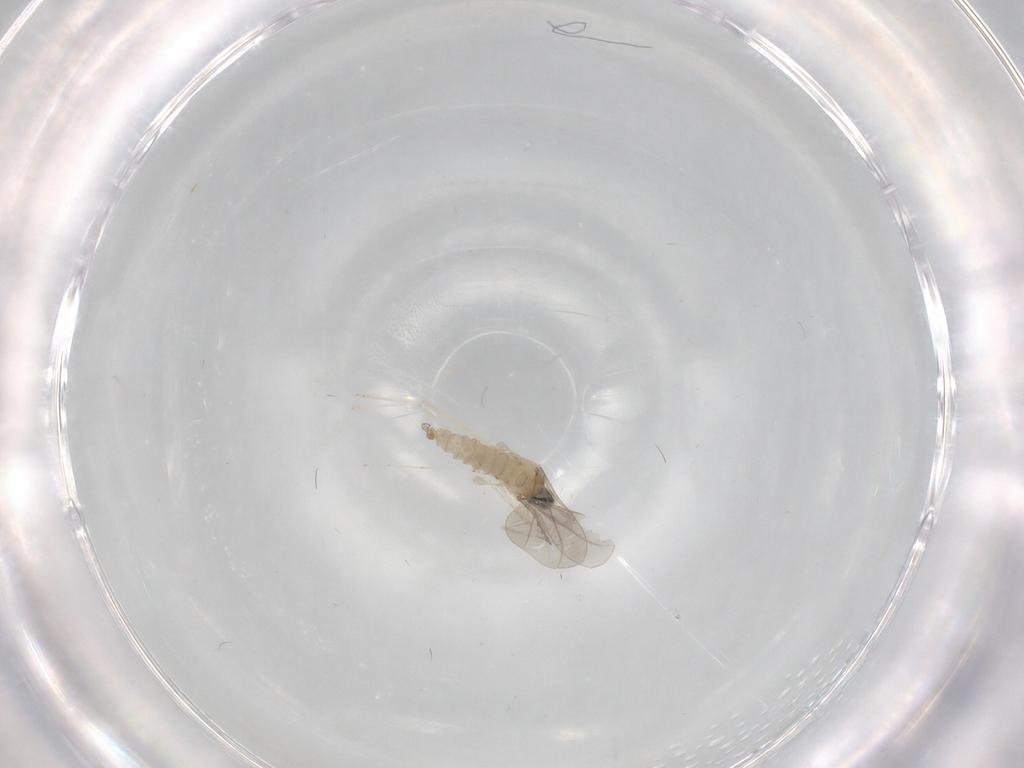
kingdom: Animalia
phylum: Arthropoda
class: Insecta
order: Diptera
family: Cecidomyiidae
